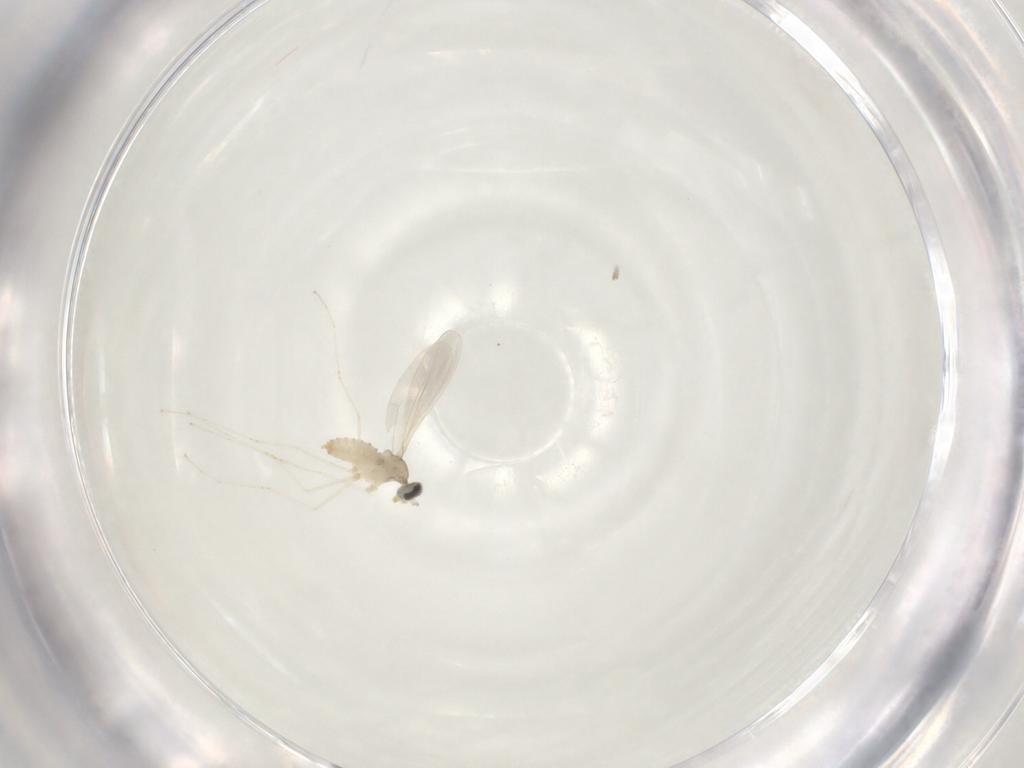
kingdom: Animalia
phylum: Arthropoda
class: Insecta
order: Diptera
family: Cecidomyiidae
